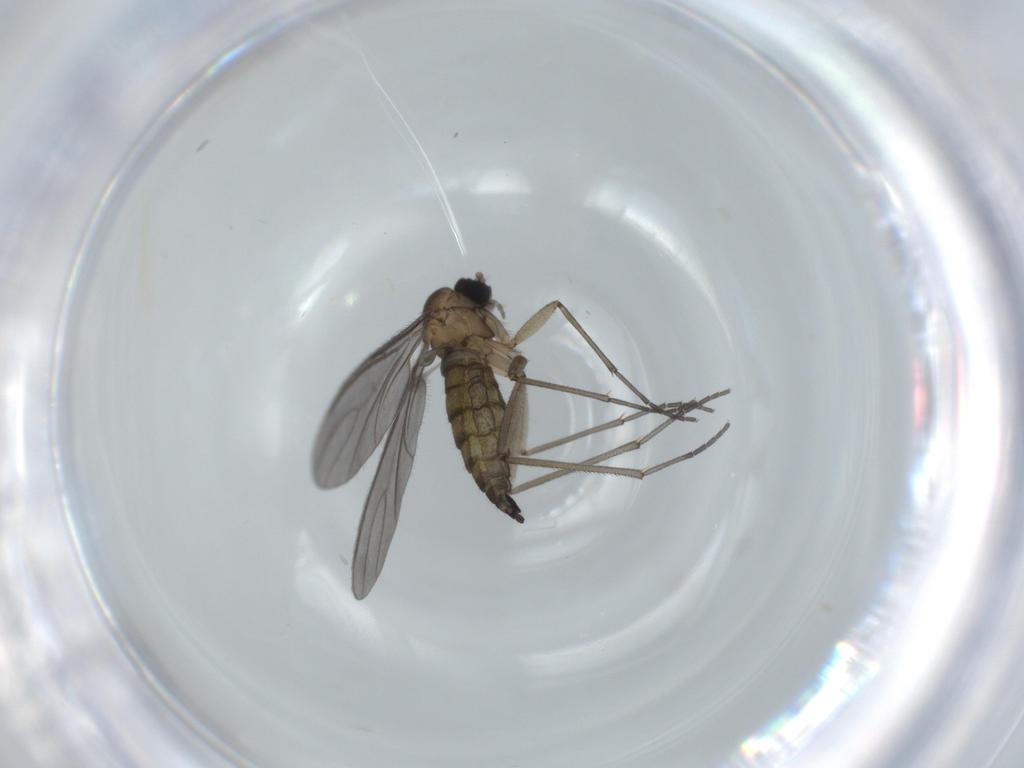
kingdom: Animalia
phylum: Arthropoda
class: Insecta
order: Diptera
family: Sciaridae
